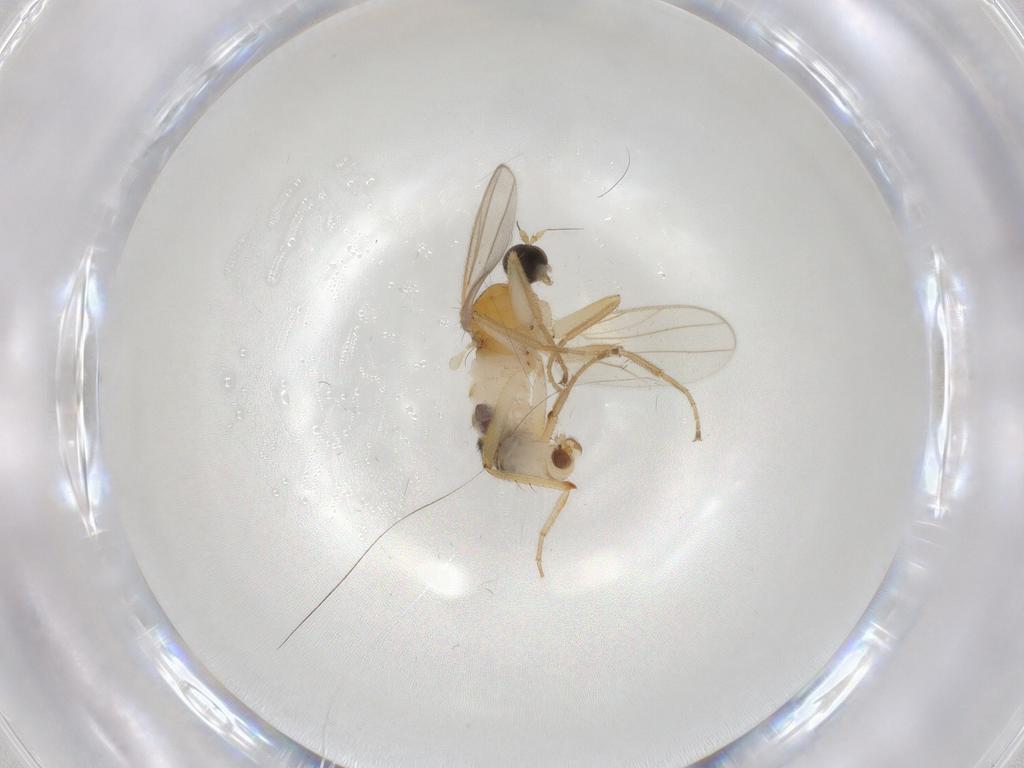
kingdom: Animalia
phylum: Arthropoda
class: Insecta
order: Diptera
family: Hybotidae
